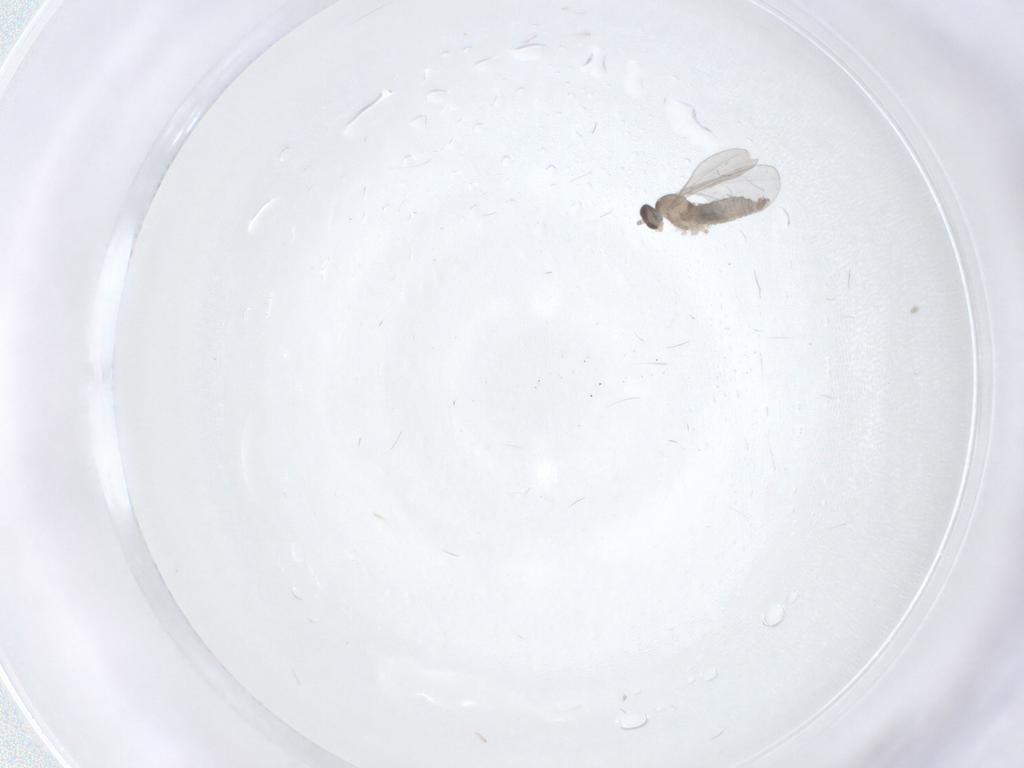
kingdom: Animalia
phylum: Arthropoda
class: Insecta
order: Diptera
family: Cecidomyiidae
